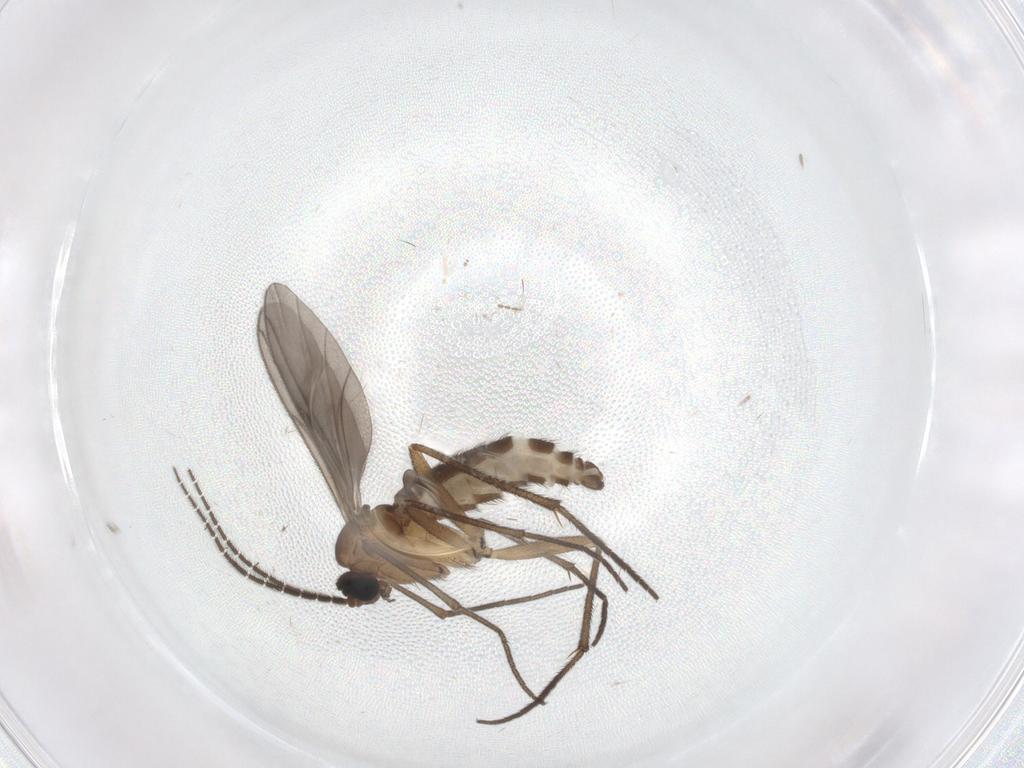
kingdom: Animalia
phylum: Arthropoda
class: Insecta
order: Diptera
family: Sciaridae
